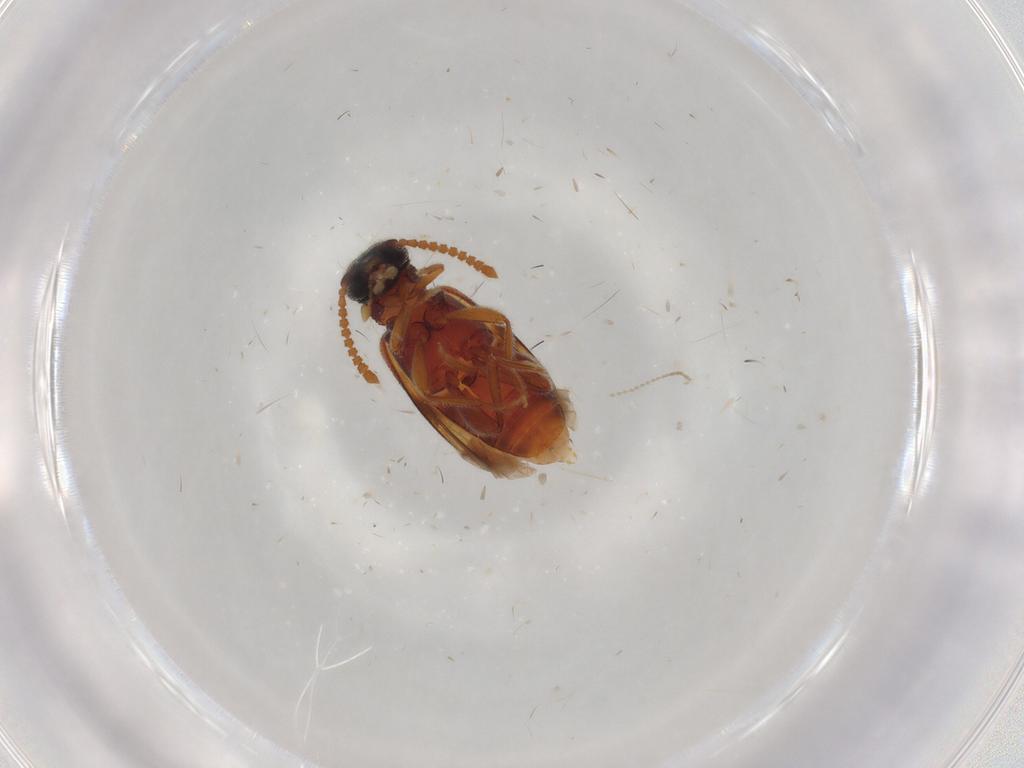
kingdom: Animalia
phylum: Arthropoda
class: Insecta
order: Coleoptera
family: Aderidae
